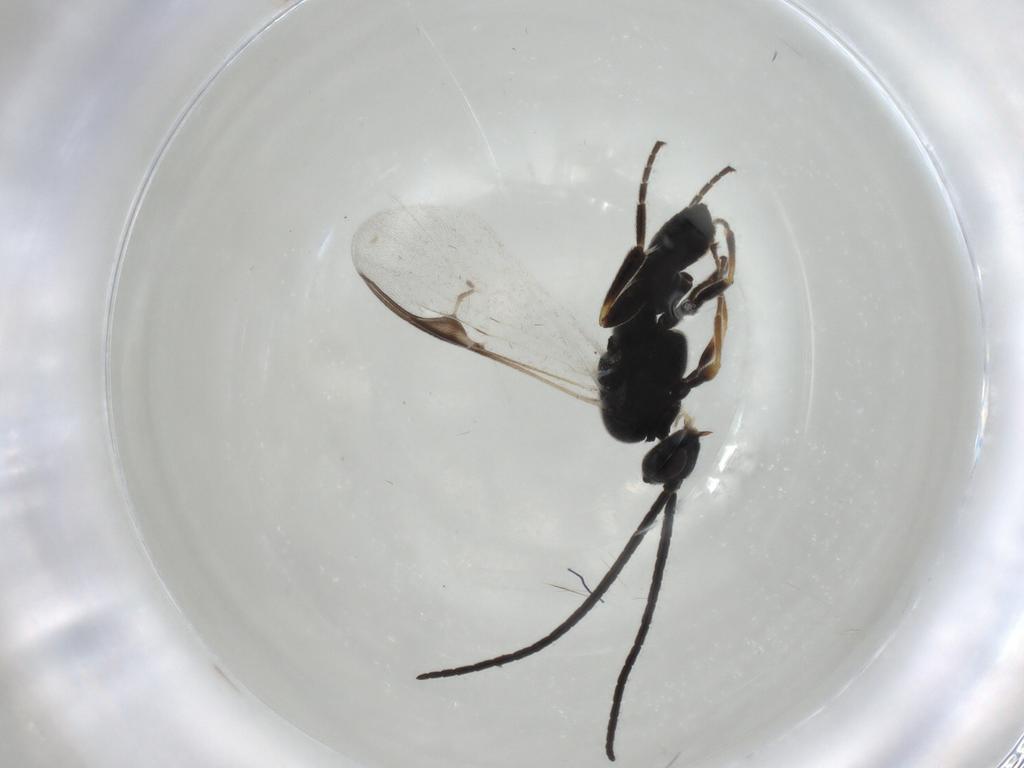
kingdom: Animalia
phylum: Arthropoda
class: Insecta
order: Hymenoptera
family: Braconidae
